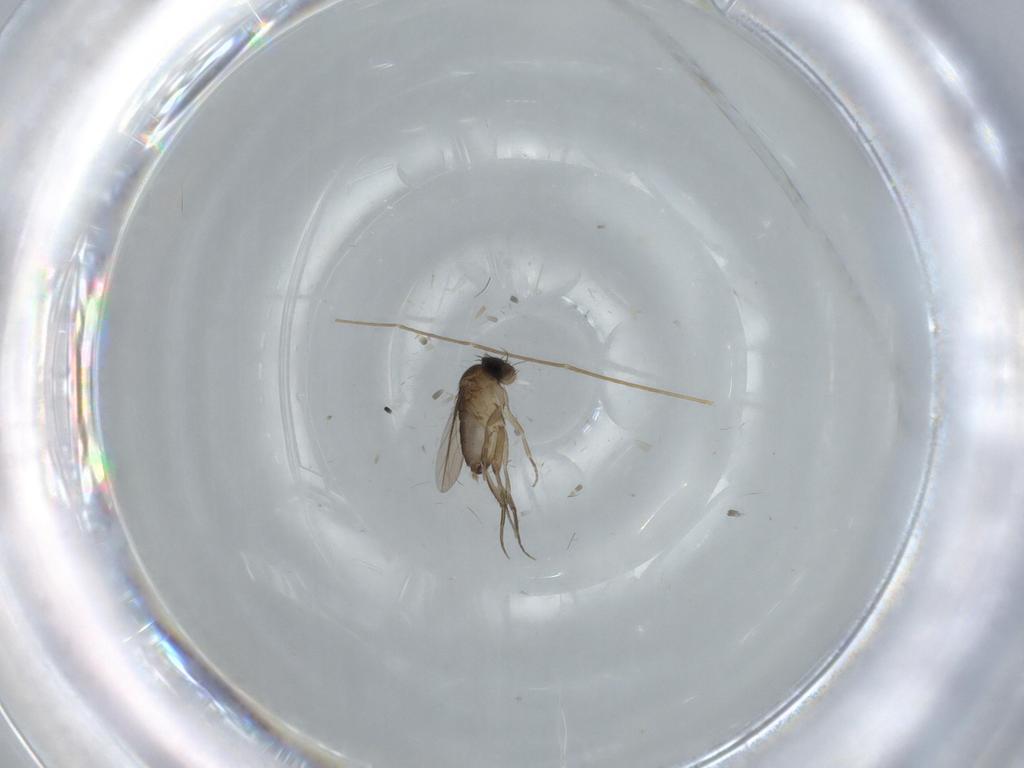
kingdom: Animalia
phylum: Arthropoda
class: Insecta
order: Diptera
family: Chironomidae
